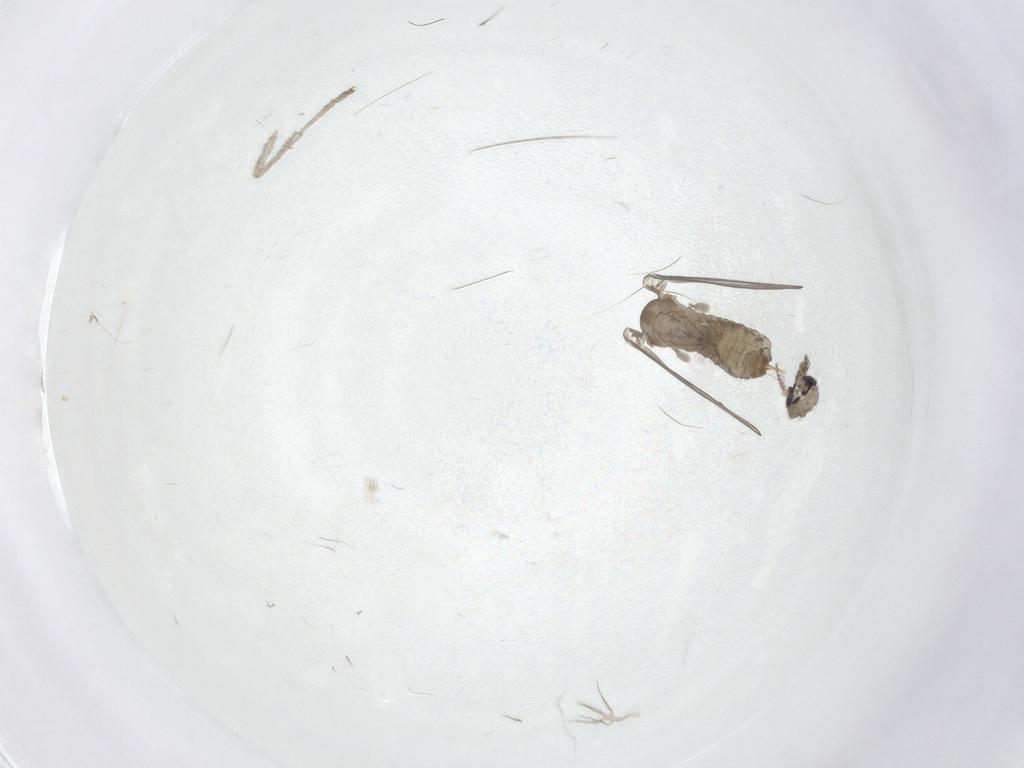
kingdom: Animalia
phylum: Arthropoda
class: Insecta
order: Diptera
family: Psychodidae
